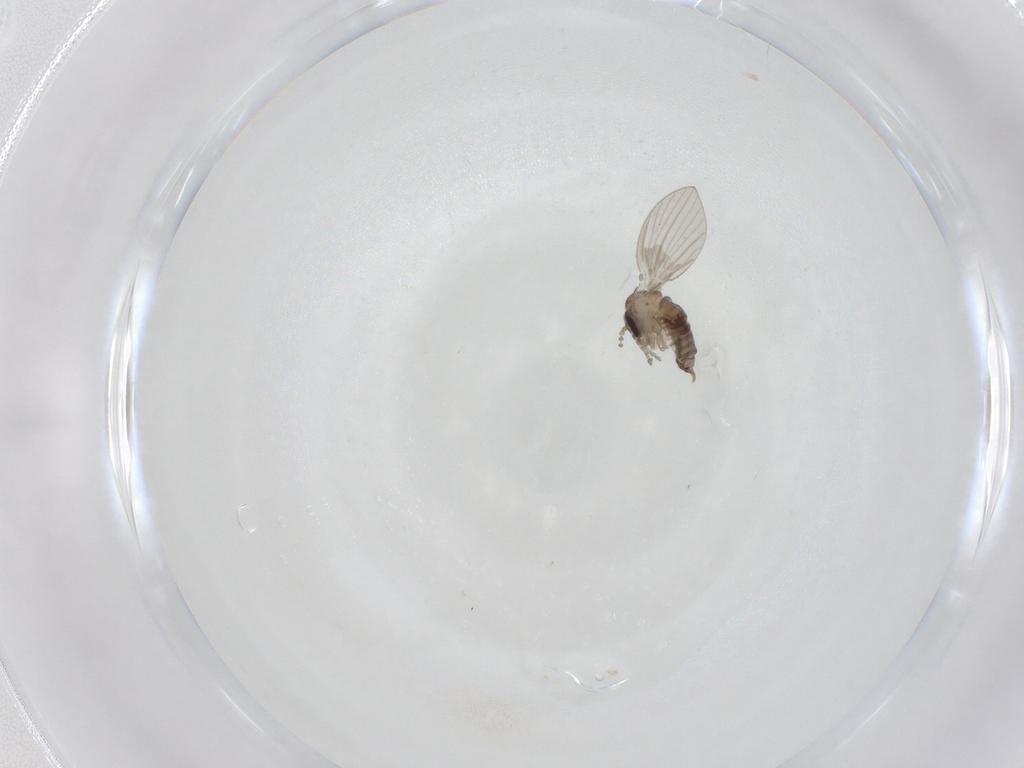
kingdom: Animalia
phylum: Arthropoda
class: Insecta
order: Diptera
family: Psychodidae
